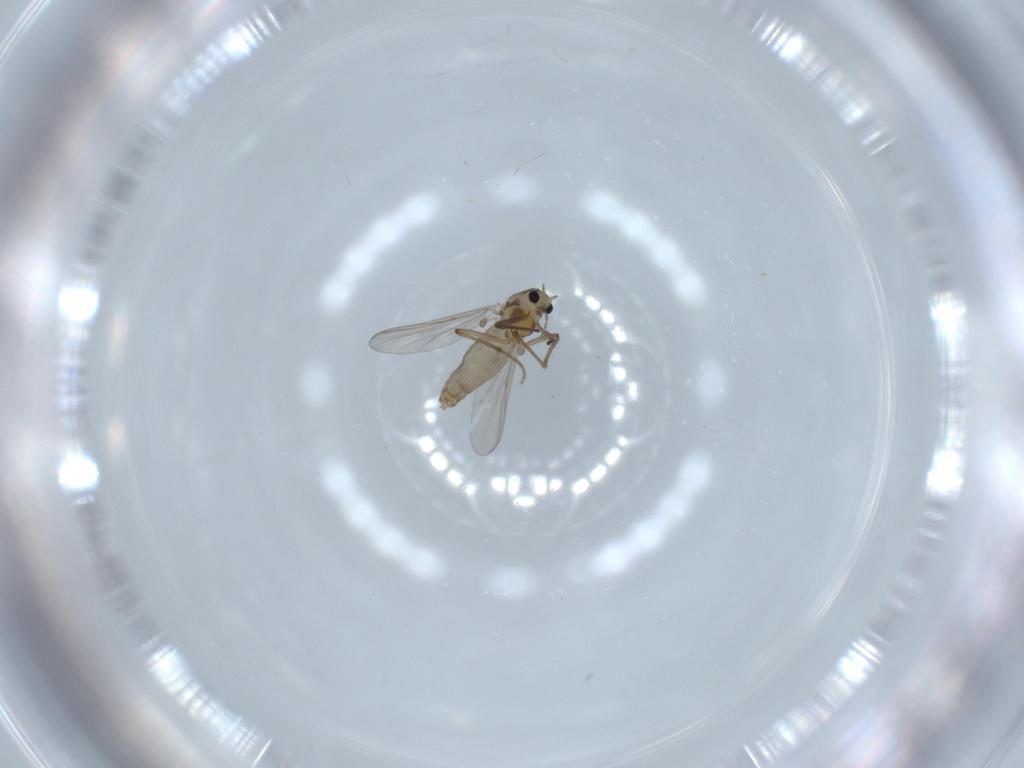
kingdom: Animalia
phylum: Arthropoda
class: Insecta
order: Diptera
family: Chironomidae
